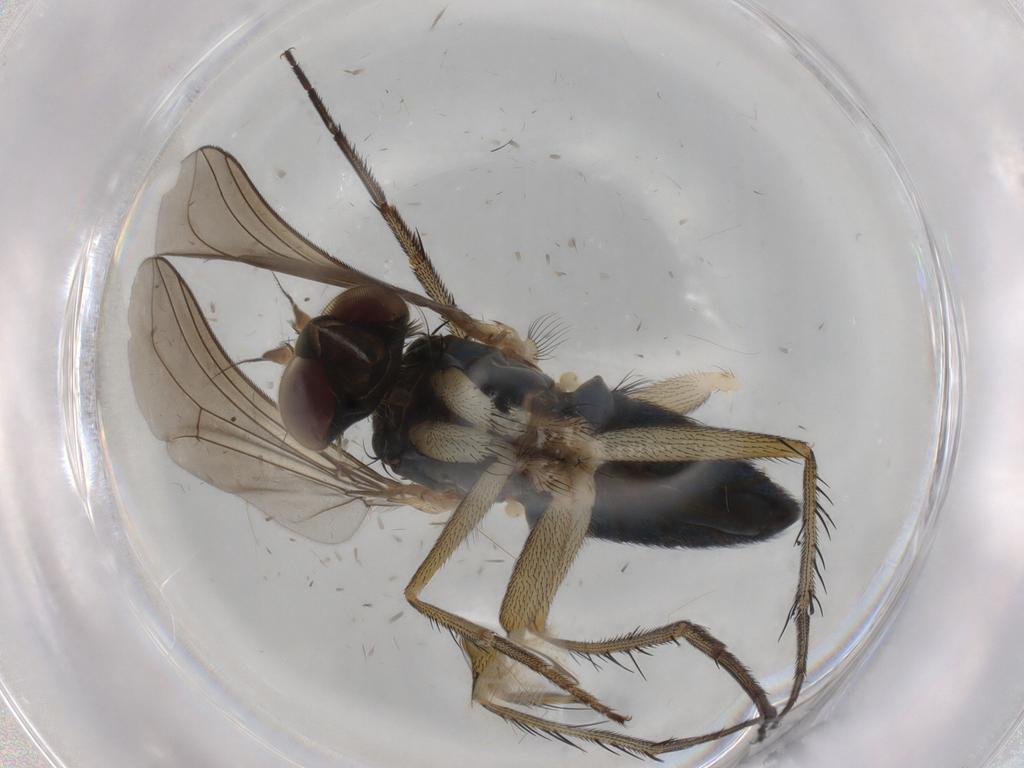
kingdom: Animalia
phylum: Arthropoda
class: Insecta
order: Diptera
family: Dolichopodidae
